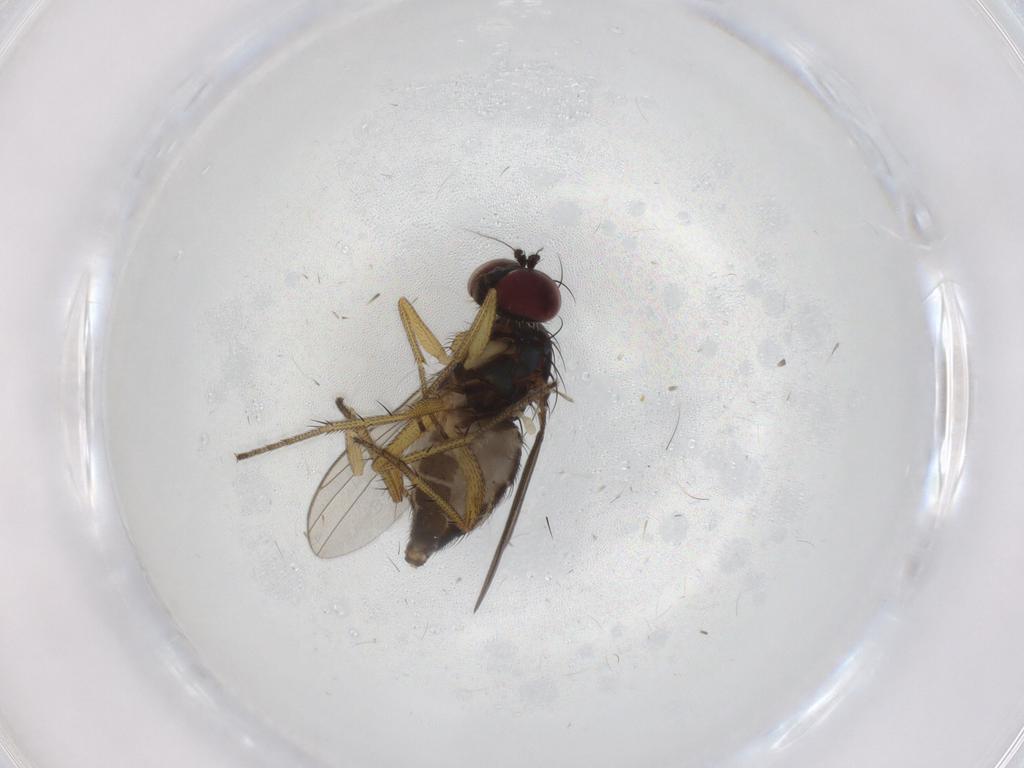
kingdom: Animalia
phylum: Arthropoda
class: Insecta
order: Diptera
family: Dolichopodidae
